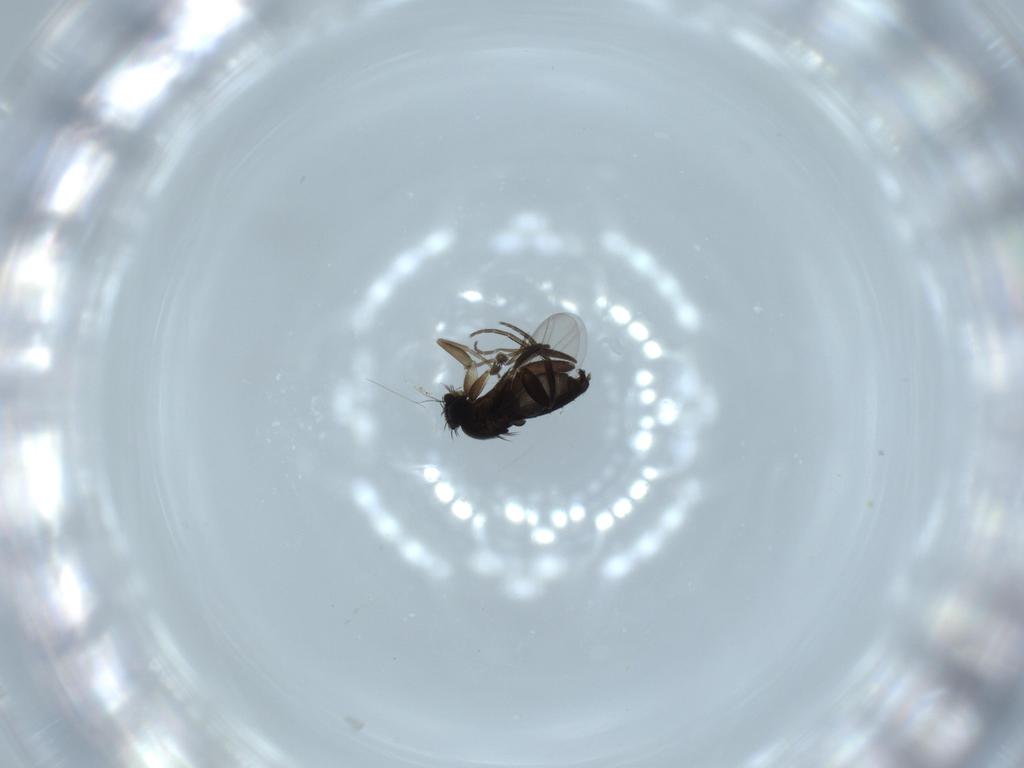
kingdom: Animalia
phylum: Arthropoda
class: Insecta
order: Diptera
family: Phoridae
